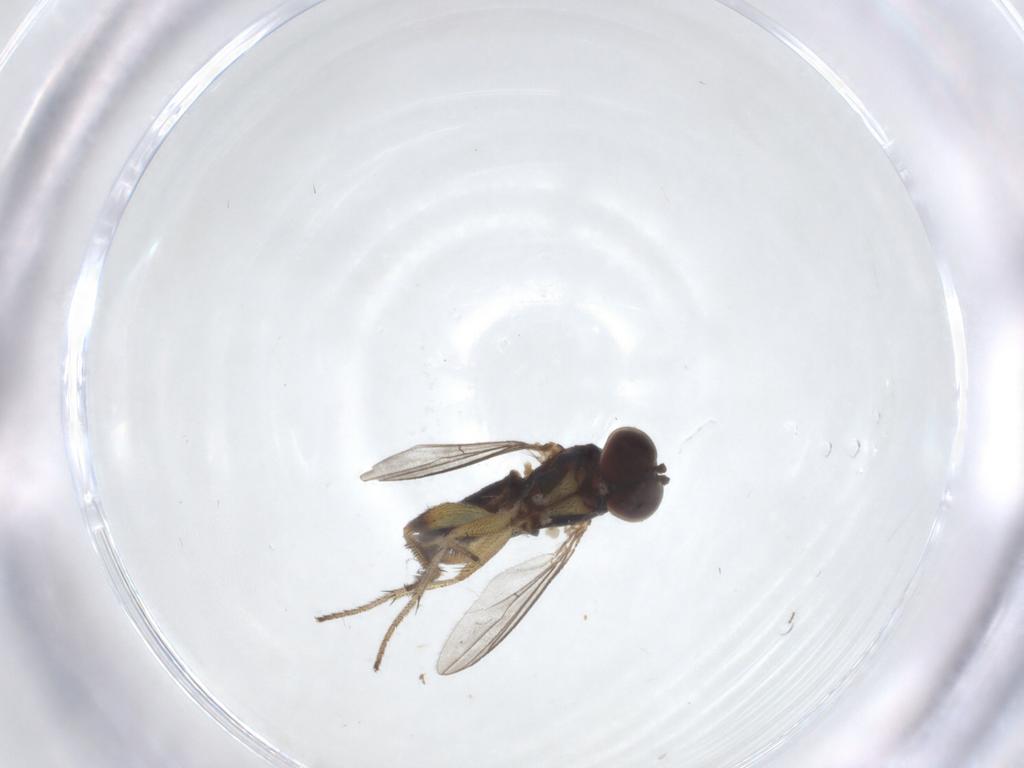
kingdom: Animalia
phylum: Arthropoda
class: Insecta
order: Diptera
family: Ceratopogonidae
